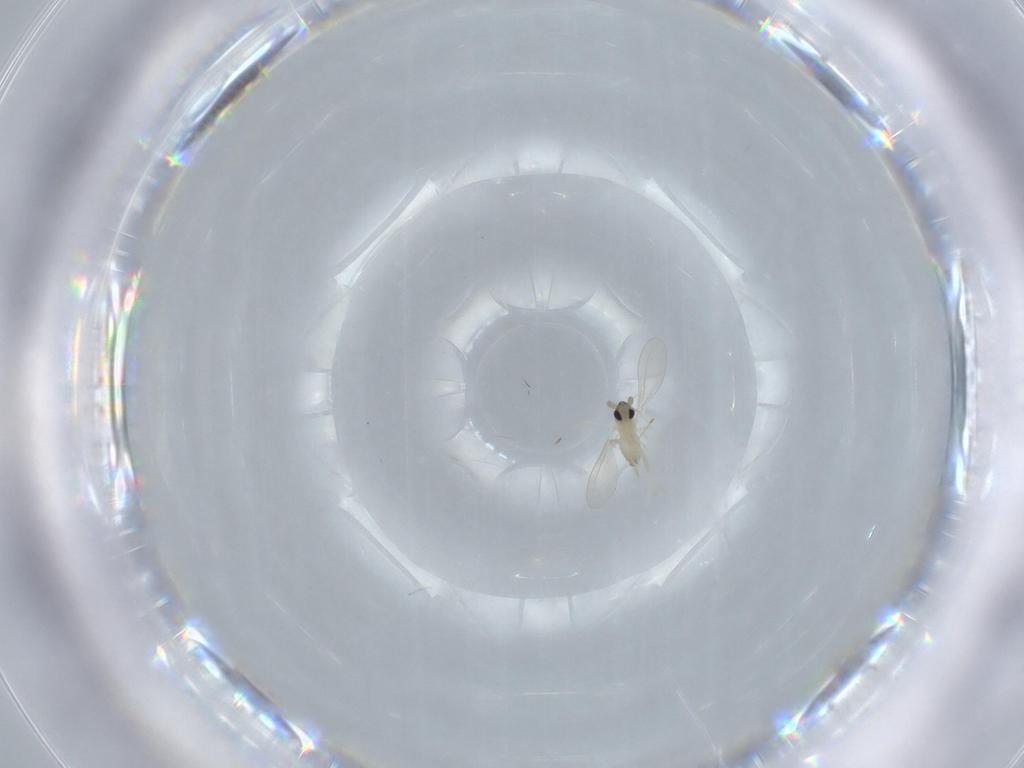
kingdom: Animalia
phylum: Arthropoda
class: Insecta
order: Diptera
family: Cecidomyiidae
